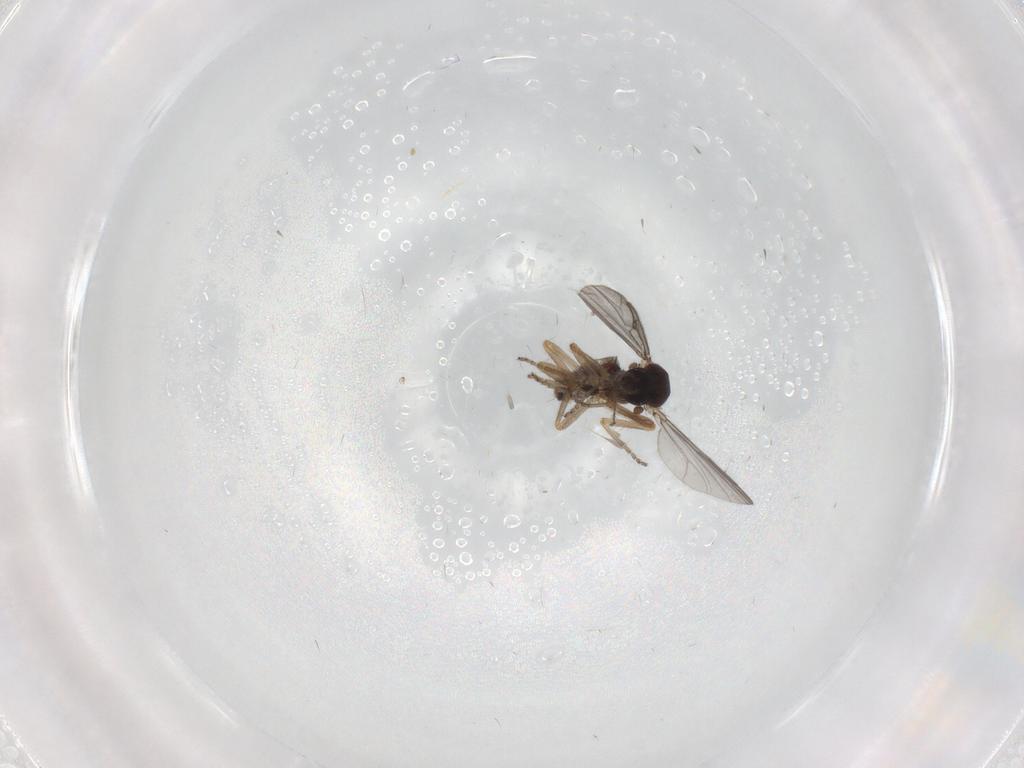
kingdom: Animalia
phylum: Arthropoda
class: Insecta
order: Diptera
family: Ceratopogonidae
